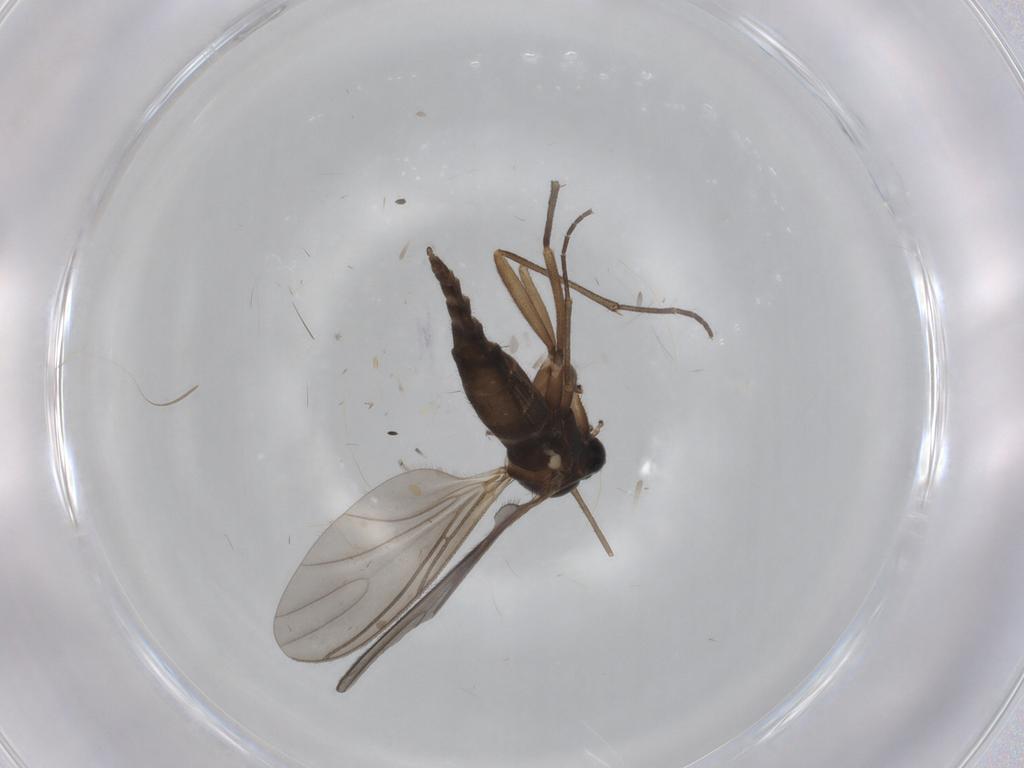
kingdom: Animalia
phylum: Arthropoda
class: Insecta
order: Diptera
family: Sciaridae
